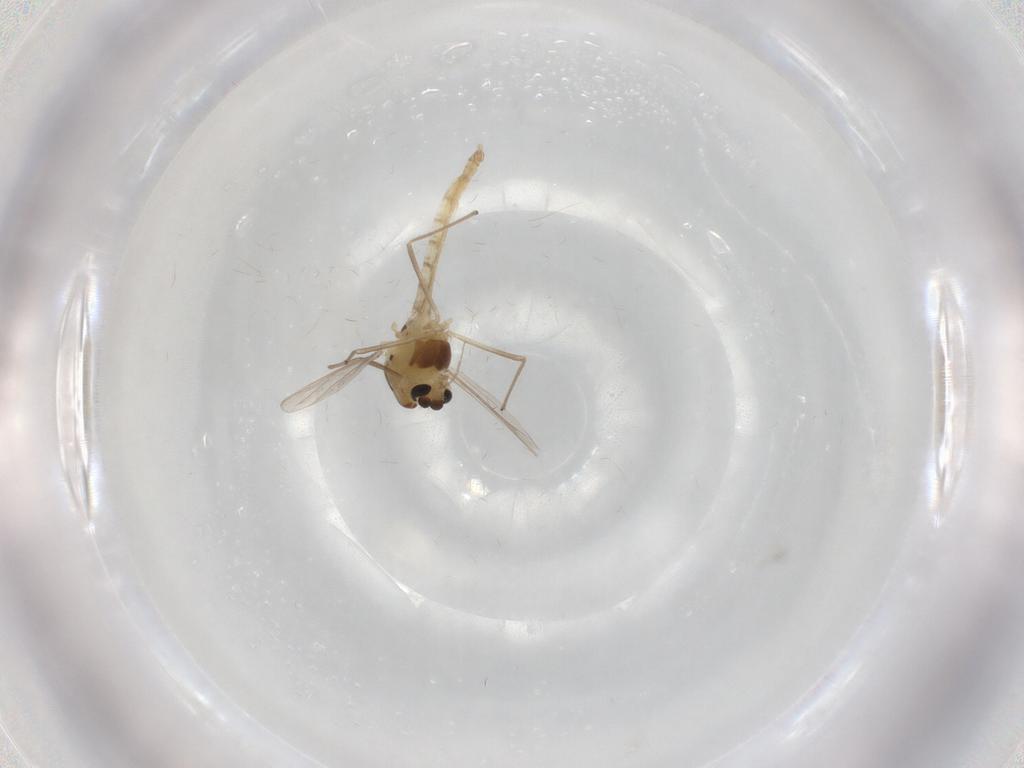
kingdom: Animalia
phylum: Arthropoda
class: Insecta
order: Diptera
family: Chironomidae
